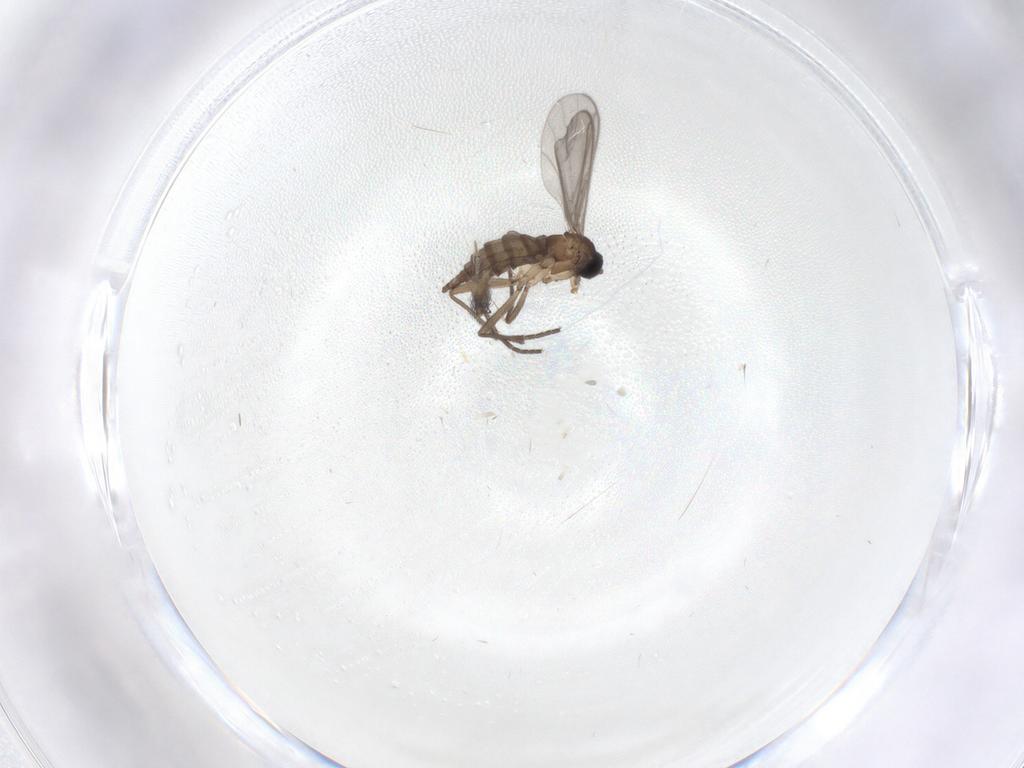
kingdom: Animalia
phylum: Arthropoda
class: Insecta
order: Diptera
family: Sciaridae
